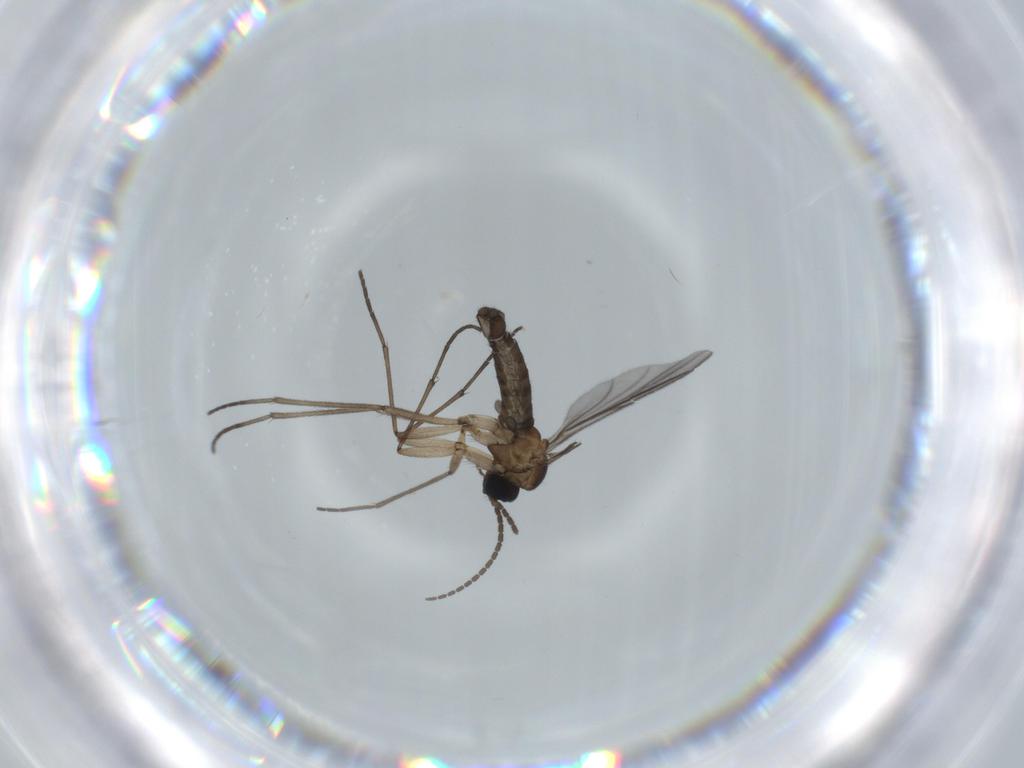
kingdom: Animalia
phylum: Arthropoda
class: Insecta
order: Diptera
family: Sciaridae
